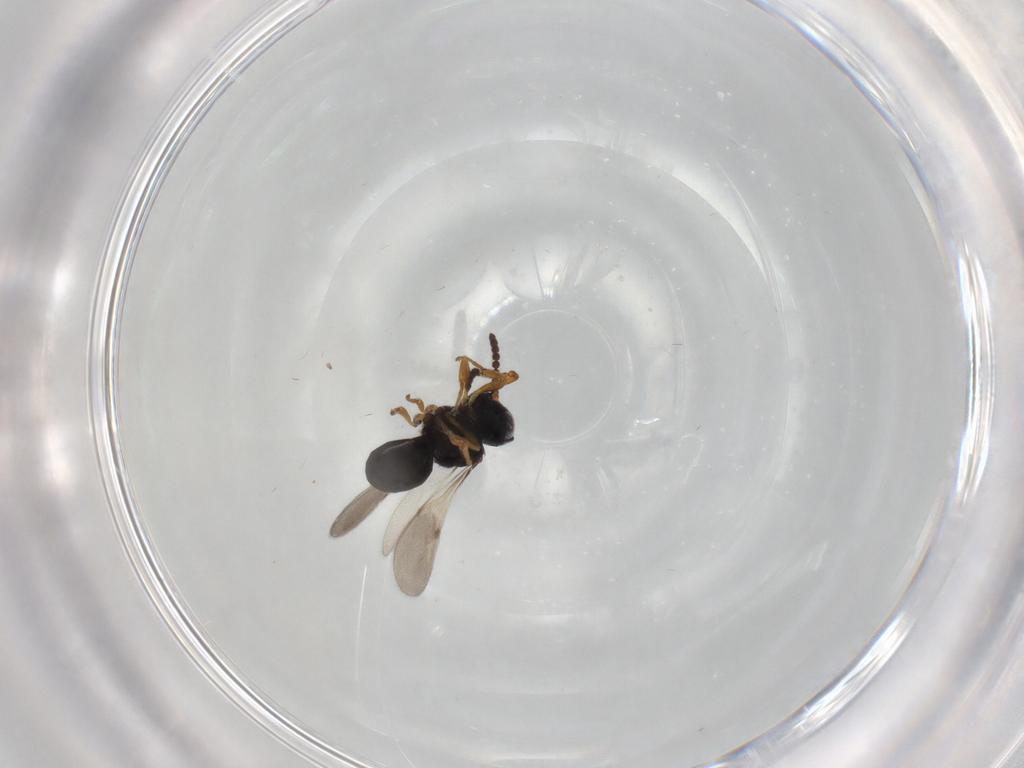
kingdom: Animalia
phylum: Arthropoda
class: Insecta
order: Hymenoptera
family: Scelionidae
